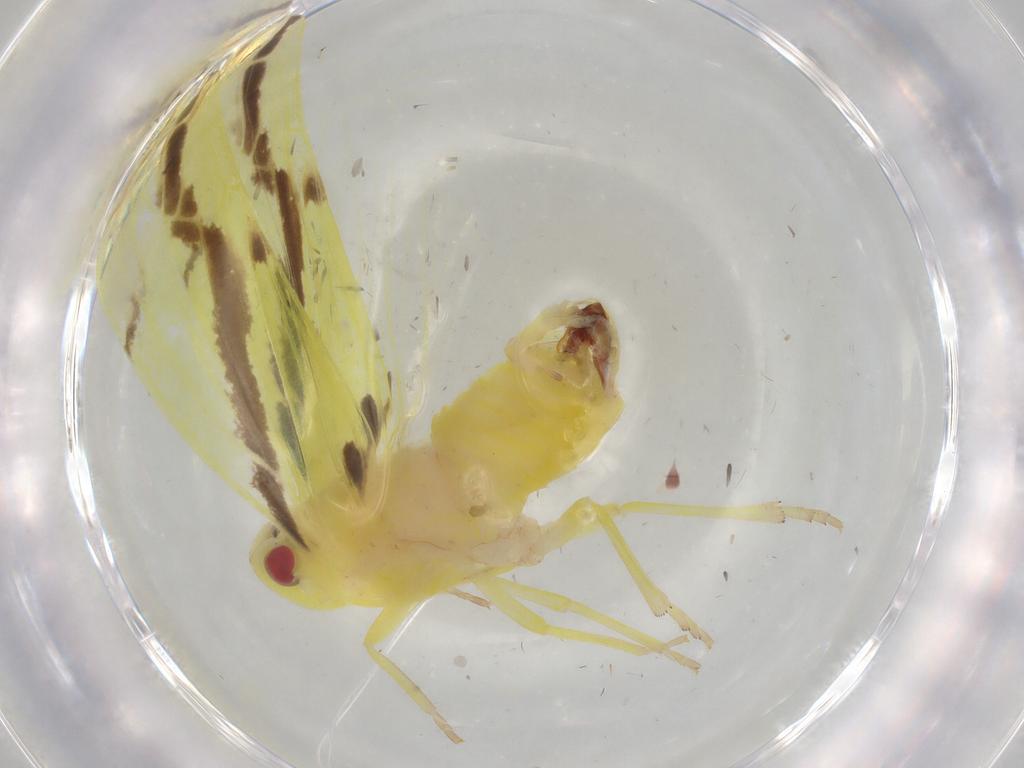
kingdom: Animalia
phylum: Arthropoda
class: Insecta
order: Hemiptera
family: Derbidae
